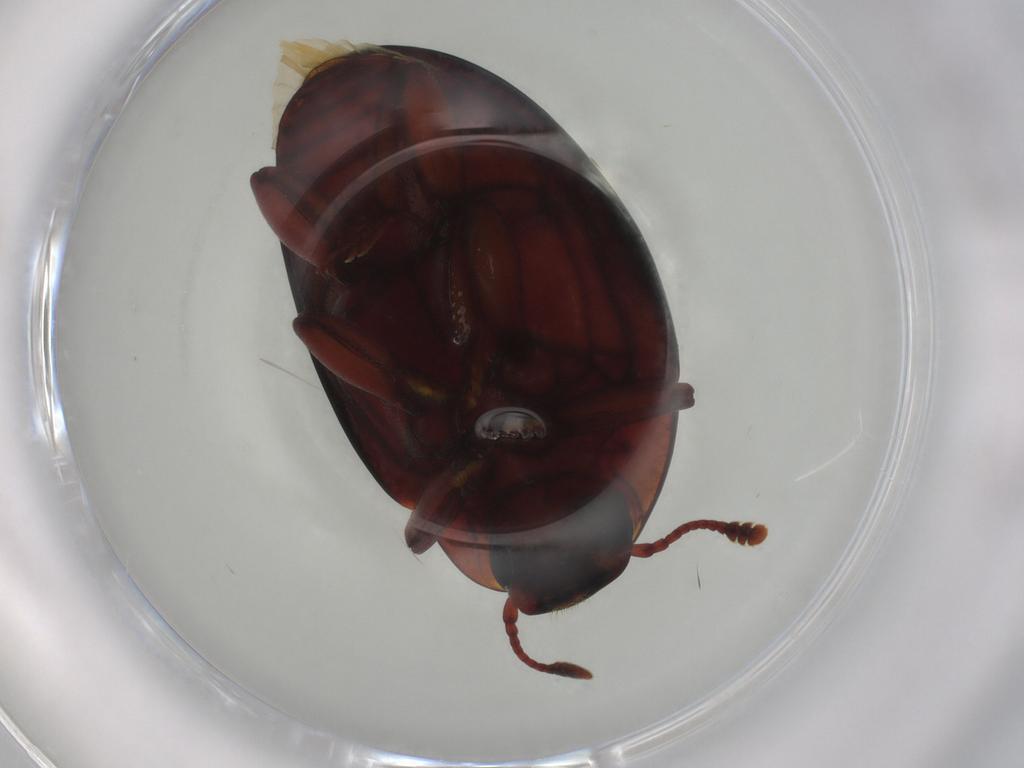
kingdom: Animalia
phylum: Arthropoda
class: Insecta
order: Coleoptera
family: Zopheridae
